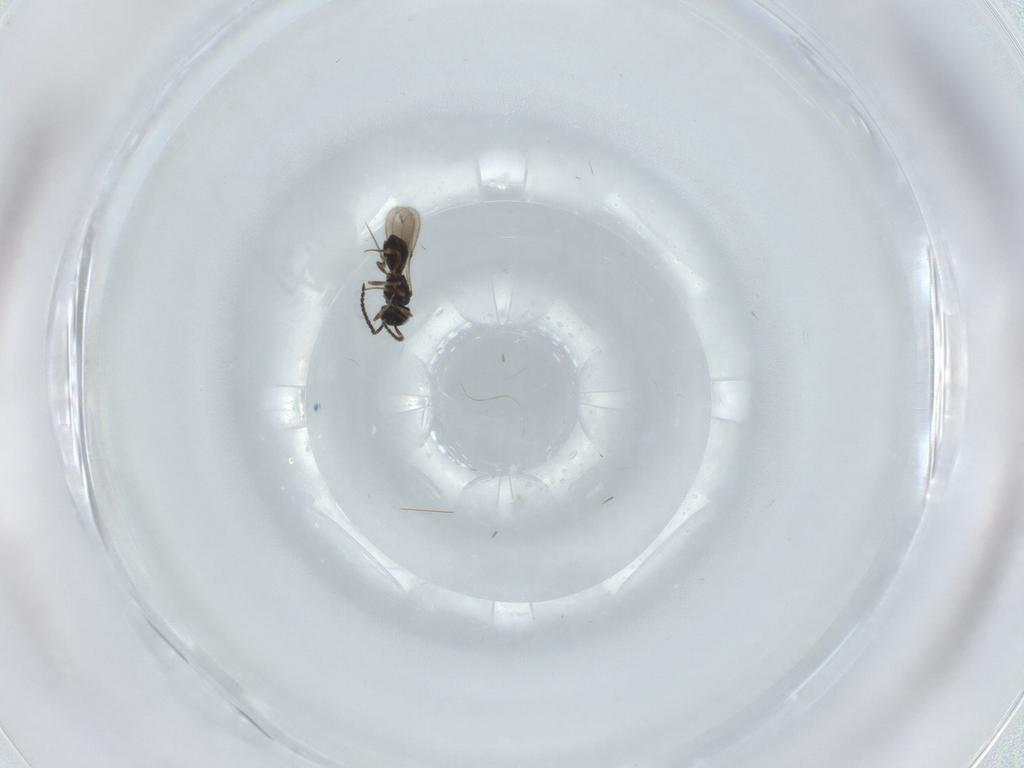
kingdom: Animalia
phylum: Arthropoda
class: Insecta
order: Hymenoptera
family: Scelionidae
